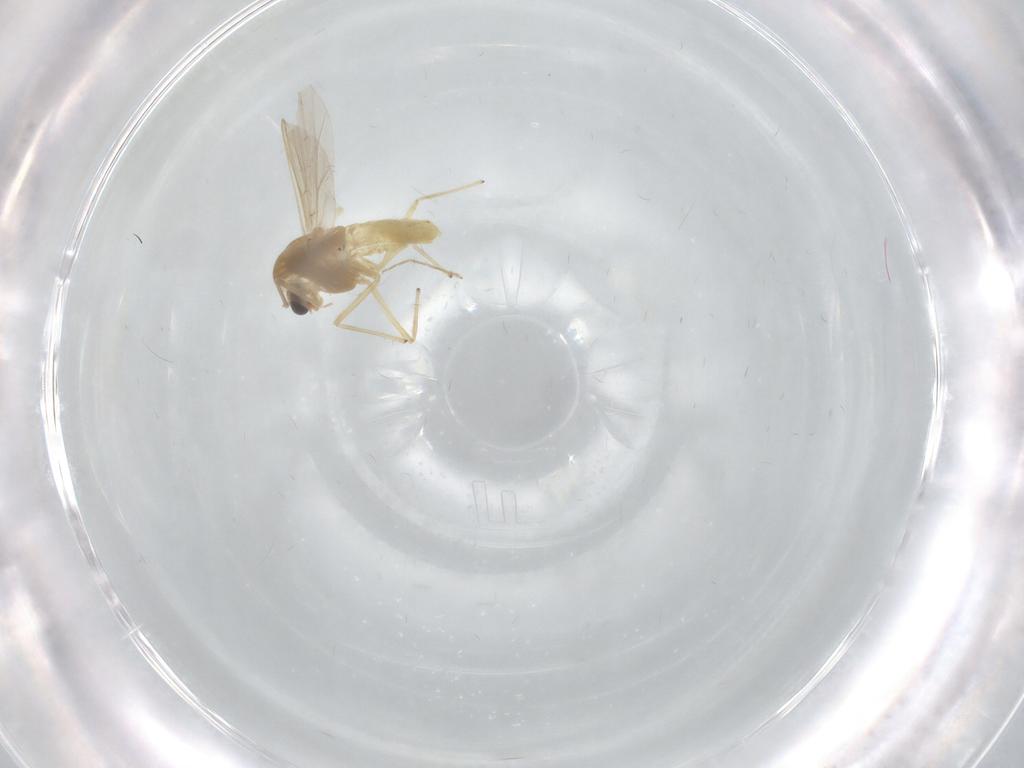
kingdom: Animalia
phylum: Arthropoda
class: Insecta
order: Diptera
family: Chironomidae
